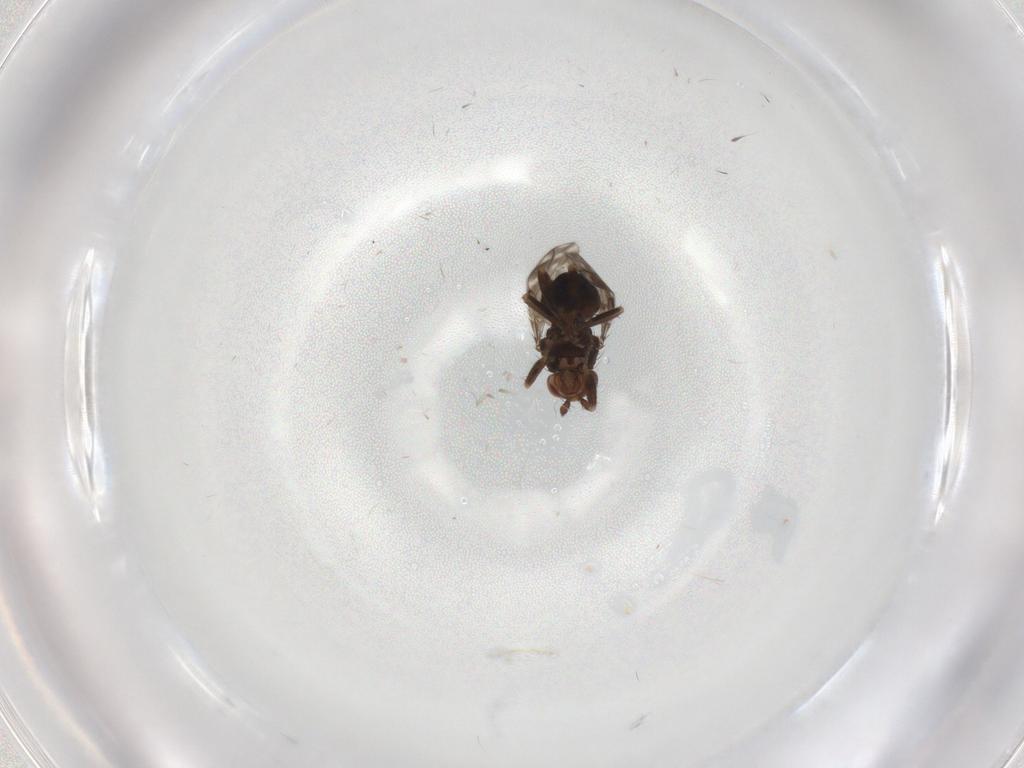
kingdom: Animalia
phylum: Arthropoda
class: Insecta
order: Diptera
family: Sphaeroceridae
